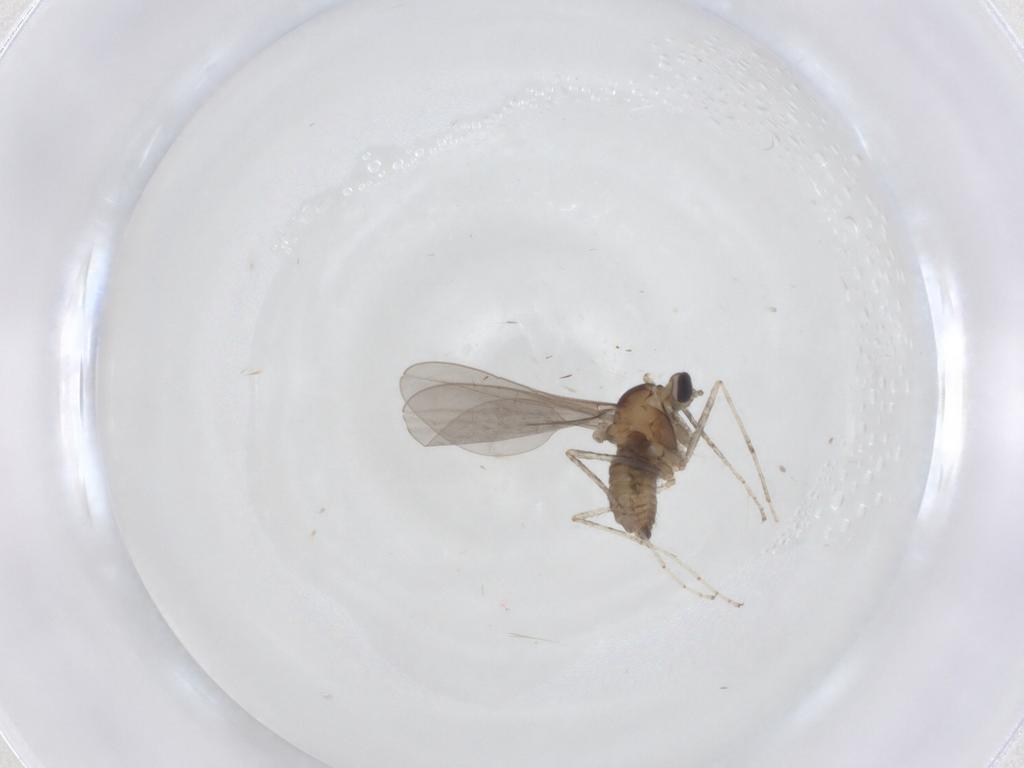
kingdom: Animalia
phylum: Arthropoda
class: Insecta
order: Diptera
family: Cecidomyiidae
